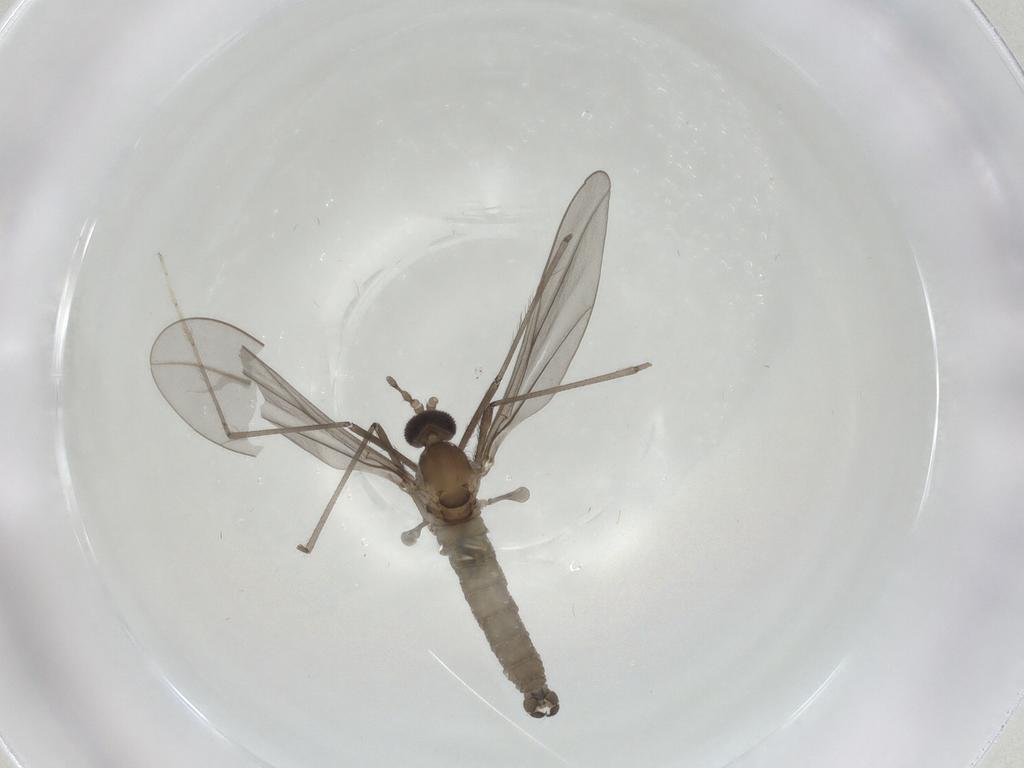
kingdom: Animalia
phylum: Arthropoda
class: Insecta
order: Diptera
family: Cecidomyiidae
